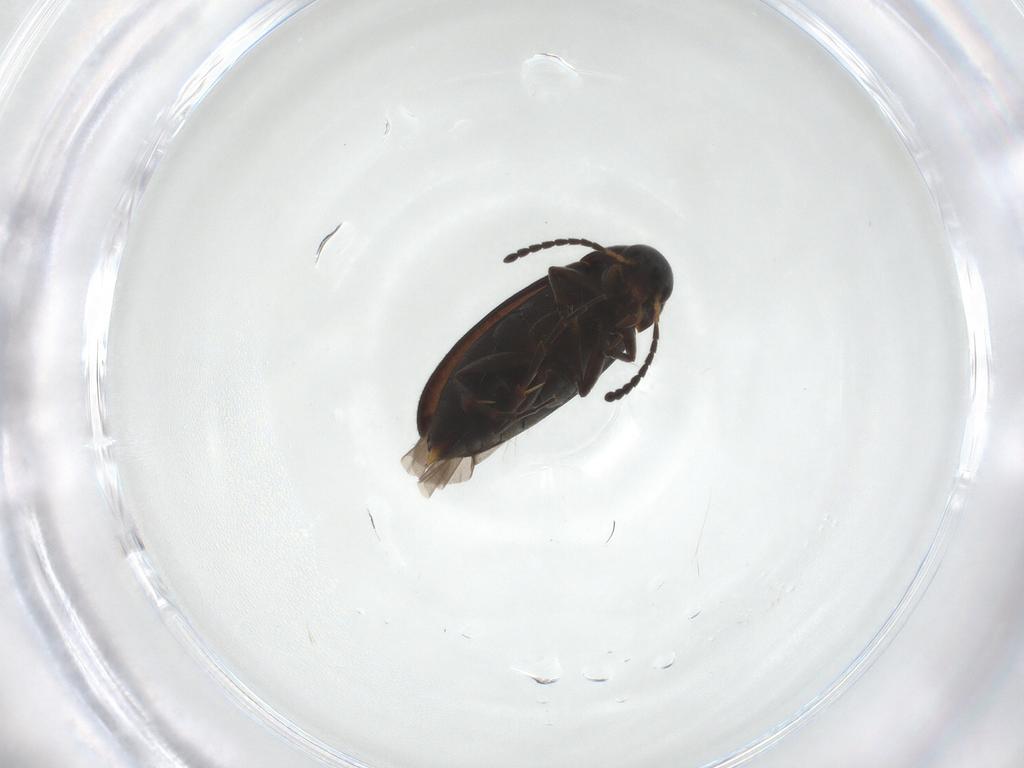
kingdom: Animalia
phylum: Arthropoda
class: Insecta
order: Coleoptera
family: Scraptiidae
